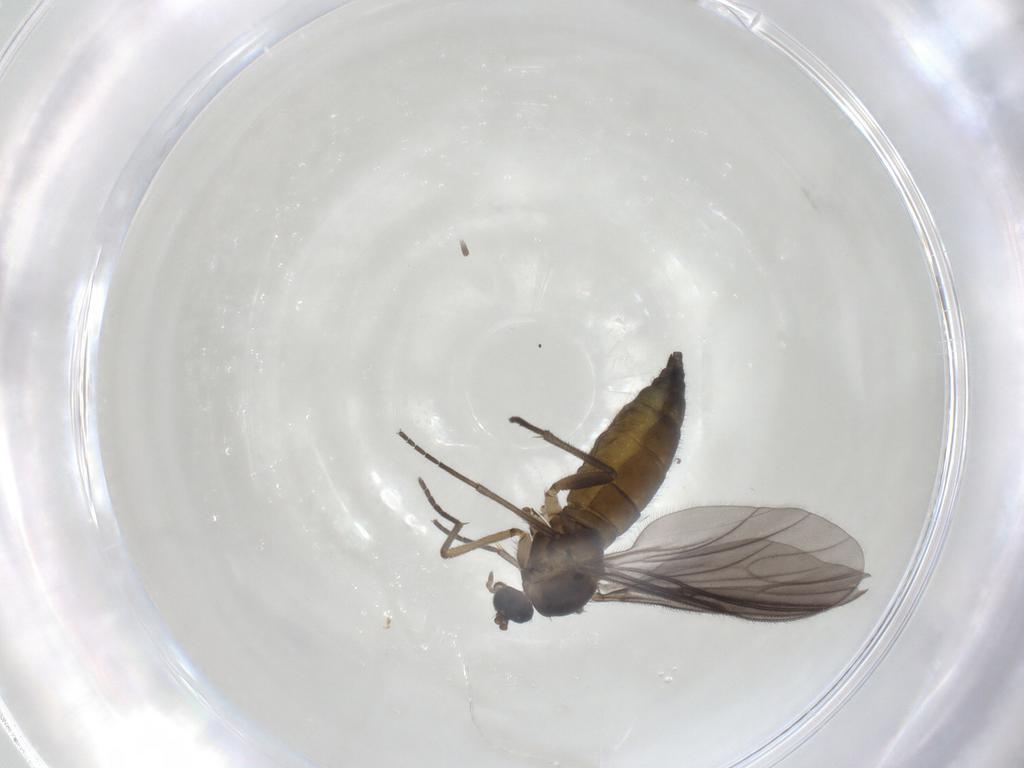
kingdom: Animalia
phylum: Arthropoda
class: Insecta
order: Diptera
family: Sciaridae
